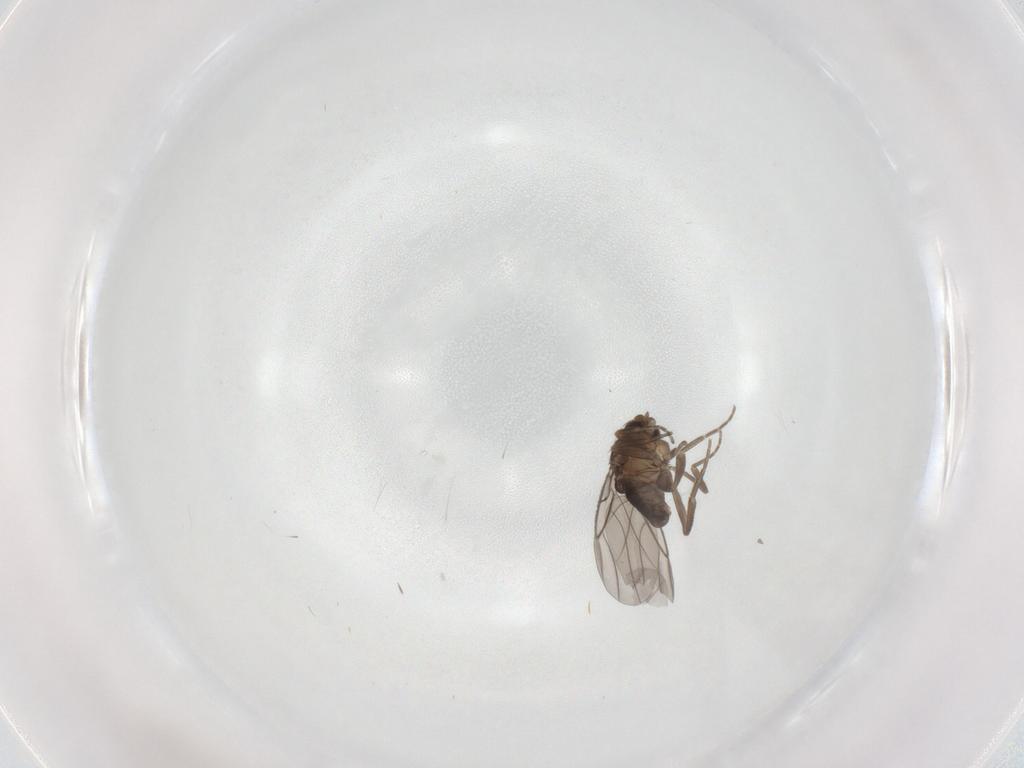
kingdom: Animalia
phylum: Arthropoda
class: Insecta
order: Diptera
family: Phoridae
